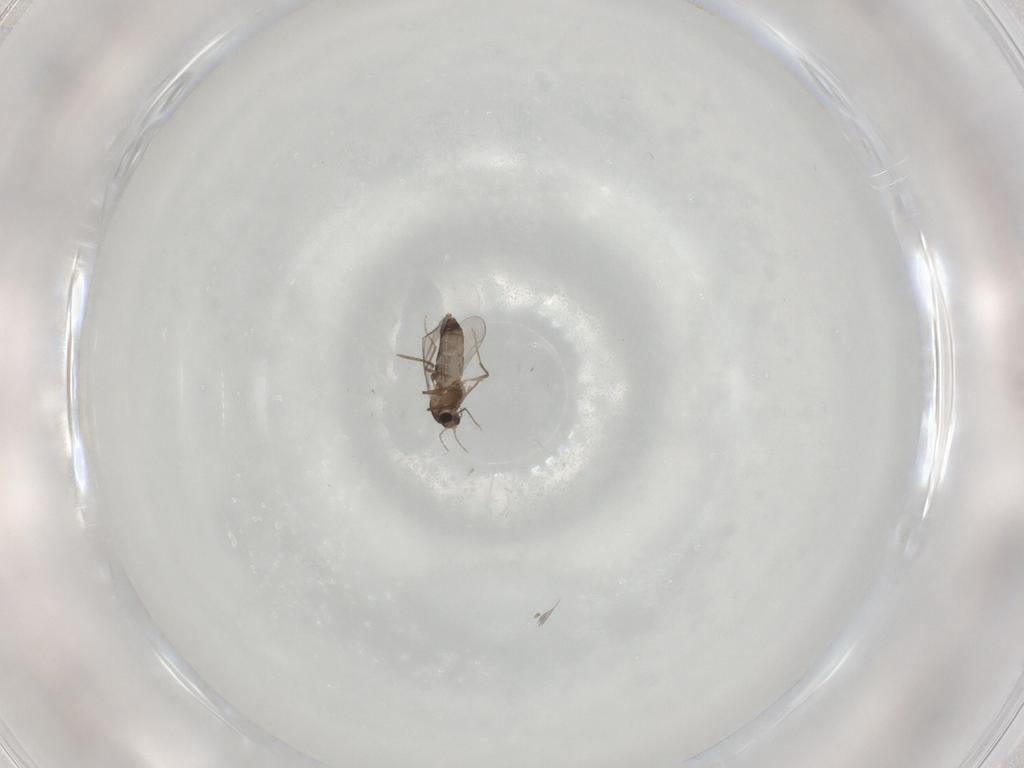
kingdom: Animalia
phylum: Arthropoda
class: Insecta
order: Diptera
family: Chironomidae
